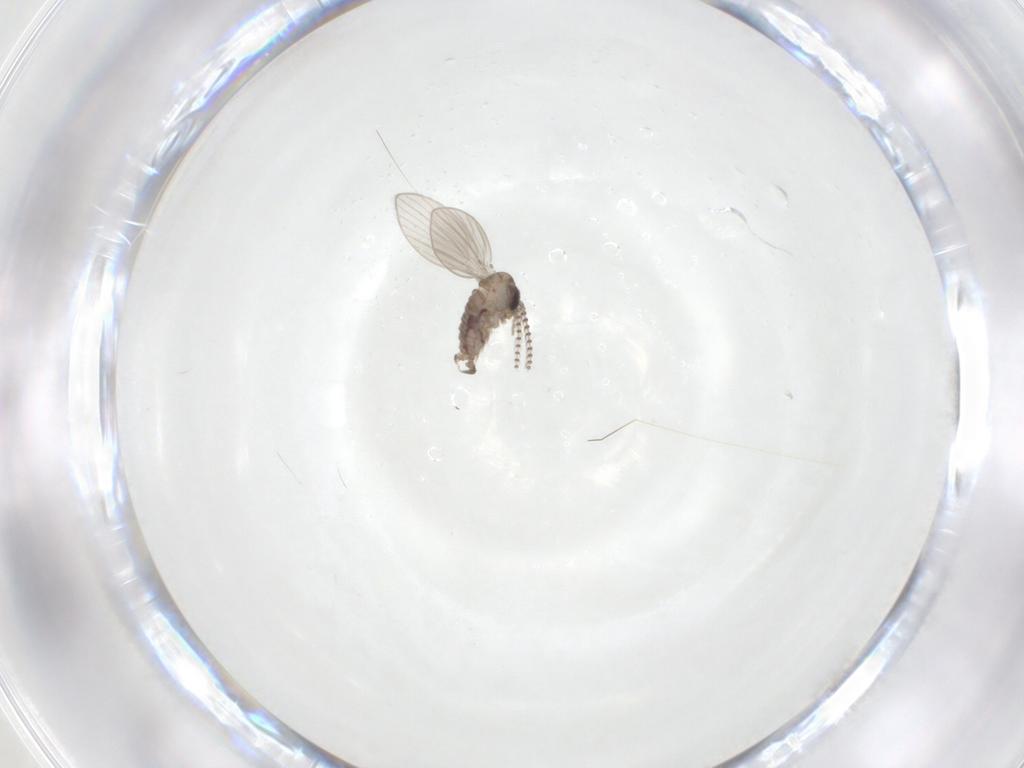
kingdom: Animalia
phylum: Arthropoda
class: Insecta
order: Diptera
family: Psychodidae
